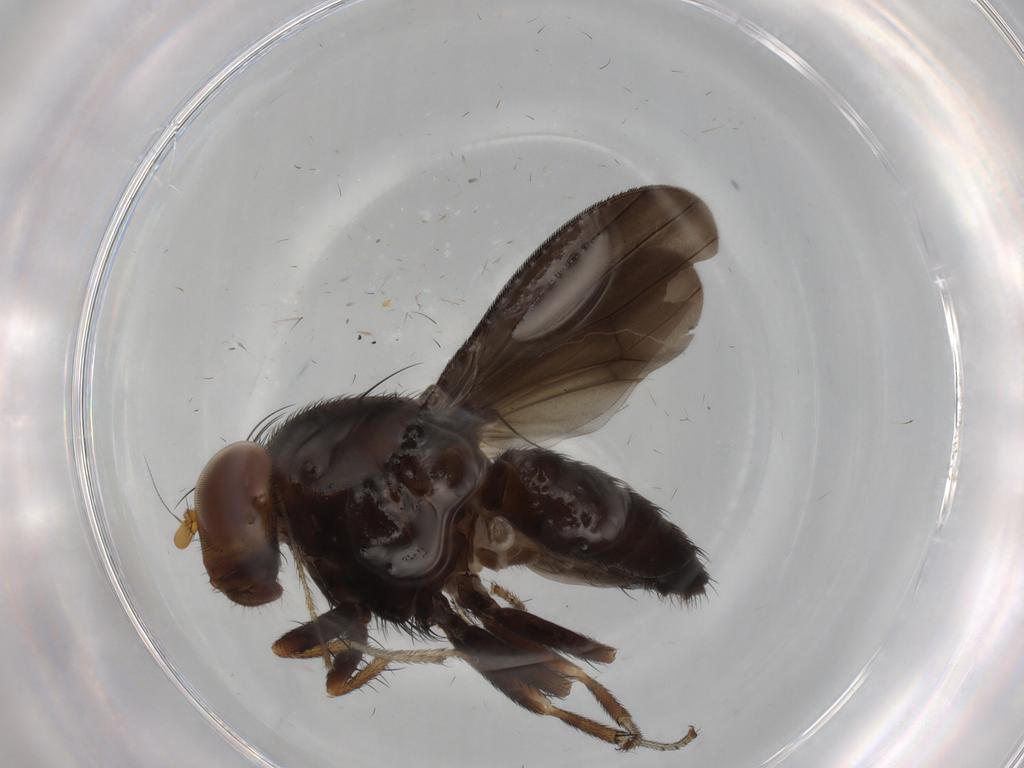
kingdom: Animalia
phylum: Arthropoda
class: Insecta
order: Diptera
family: Limoniidae
